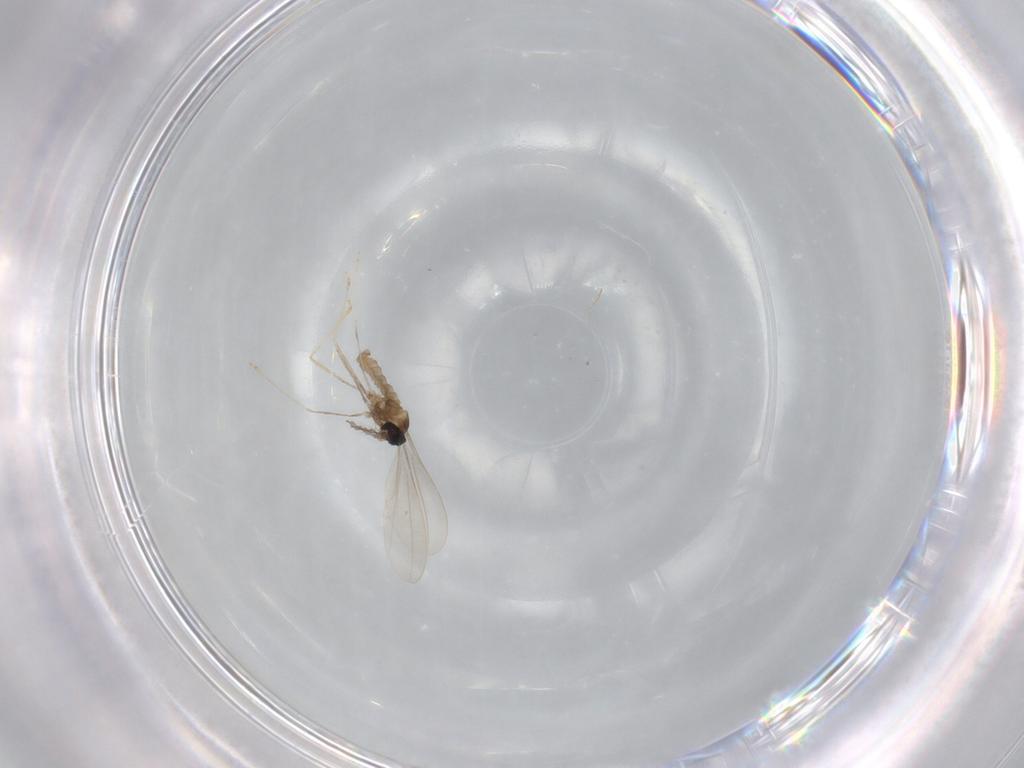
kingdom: Animalia
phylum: Arthropoda
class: Insecta
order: Diptera
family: Cecidomyiidae
